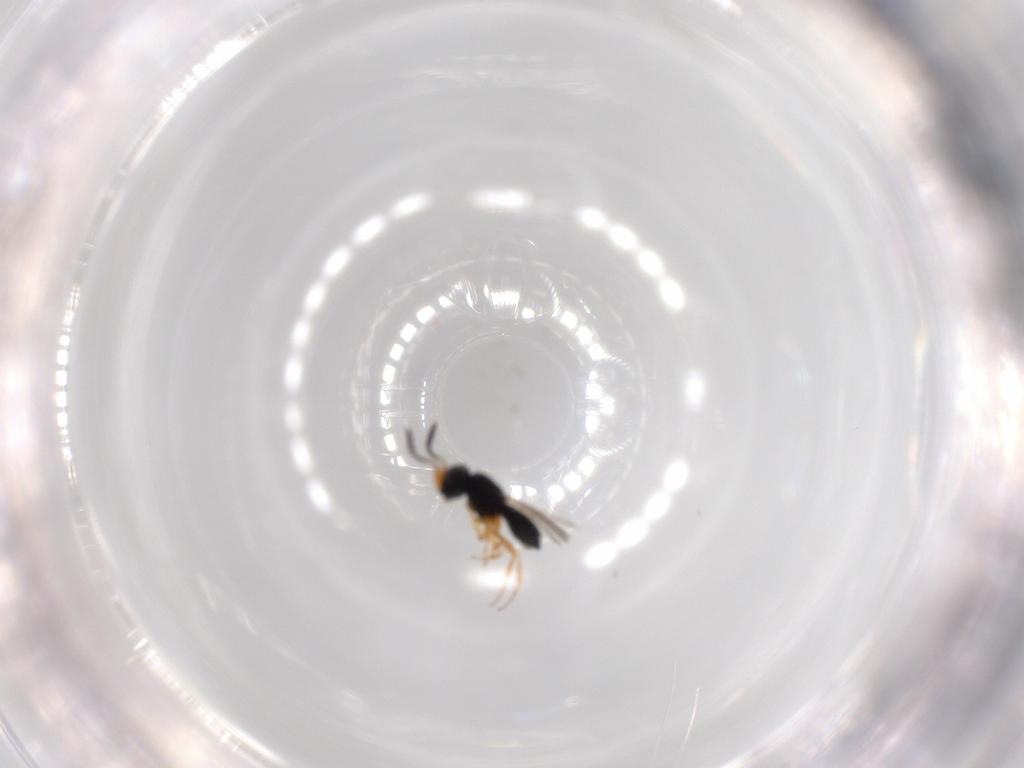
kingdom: Animalia
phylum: Arthropoda
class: Insecta
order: Hymenoptera
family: Scelionidae
